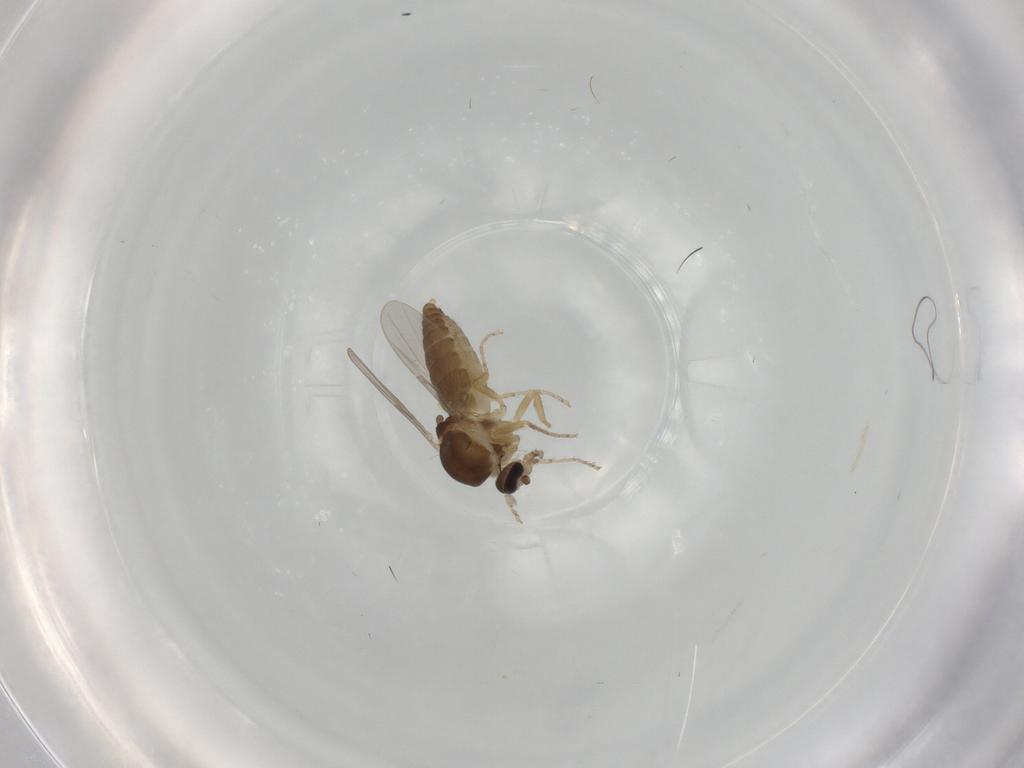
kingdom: Animalia
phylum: Arthropoda
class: Insecta
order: Diptera
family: Ceratopogonidae
